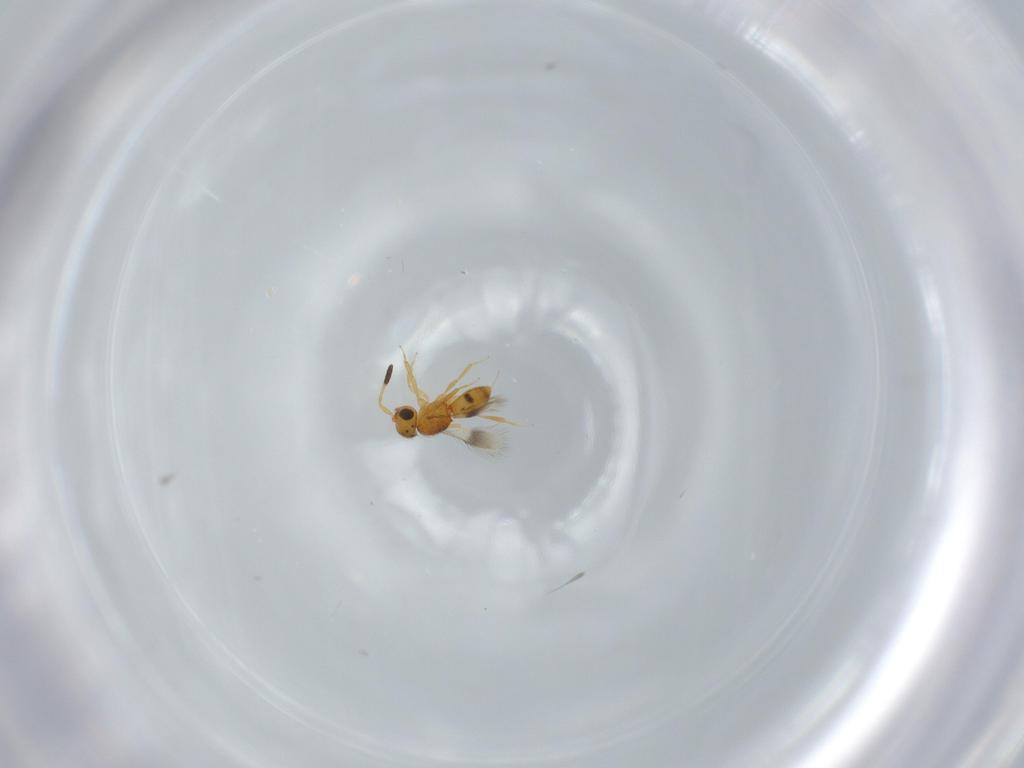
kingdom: Animalia
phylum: Arthropoda
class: Insecta
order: Hymenoptera
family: Scelionidae
